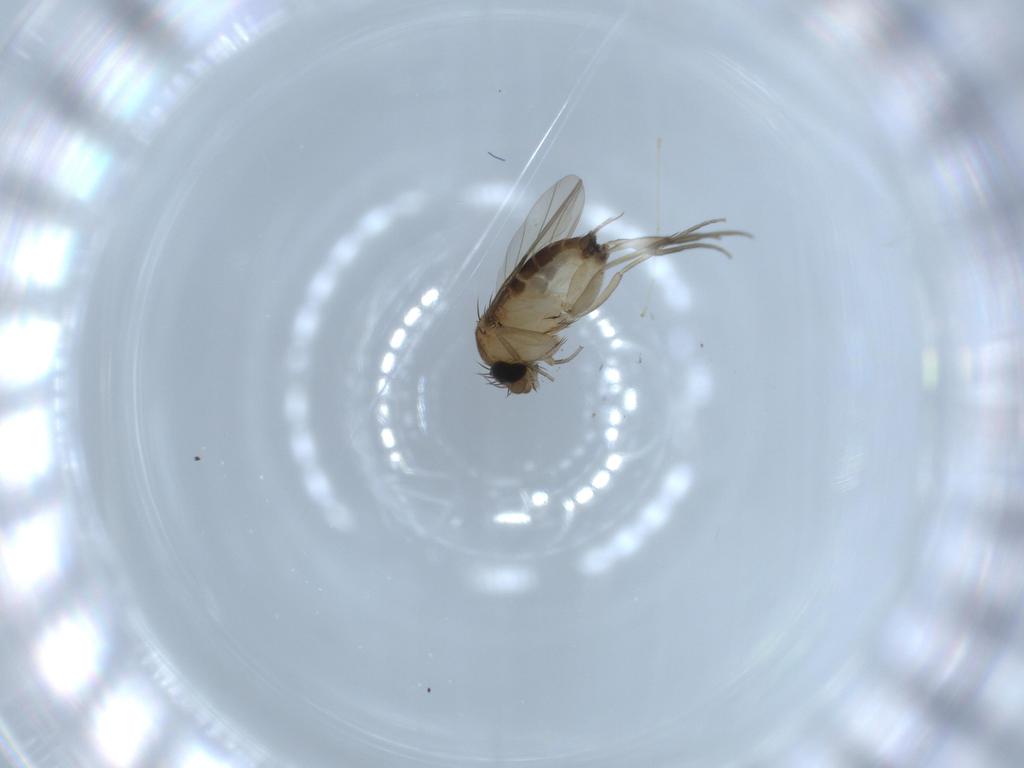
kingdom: Animalia
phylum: Arthropoda
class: Insecta
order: Diptera
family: Phoridae
